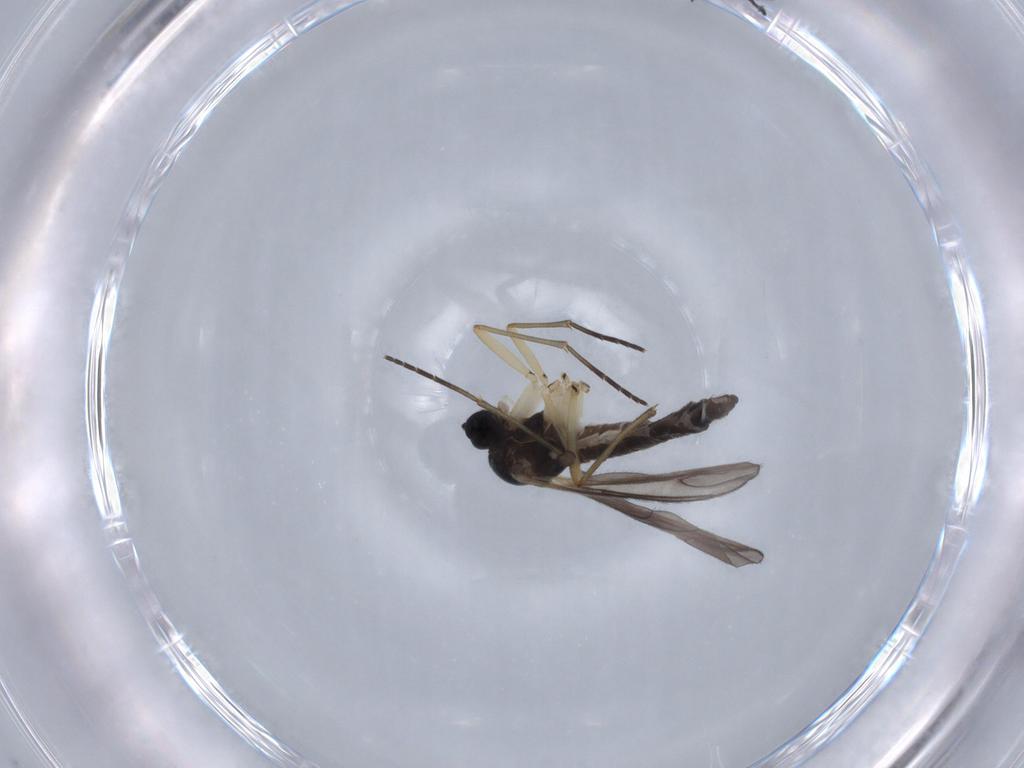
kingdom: Animalia
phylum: Arthropoda
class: Insecta
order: Diptera
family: Sciaridae
